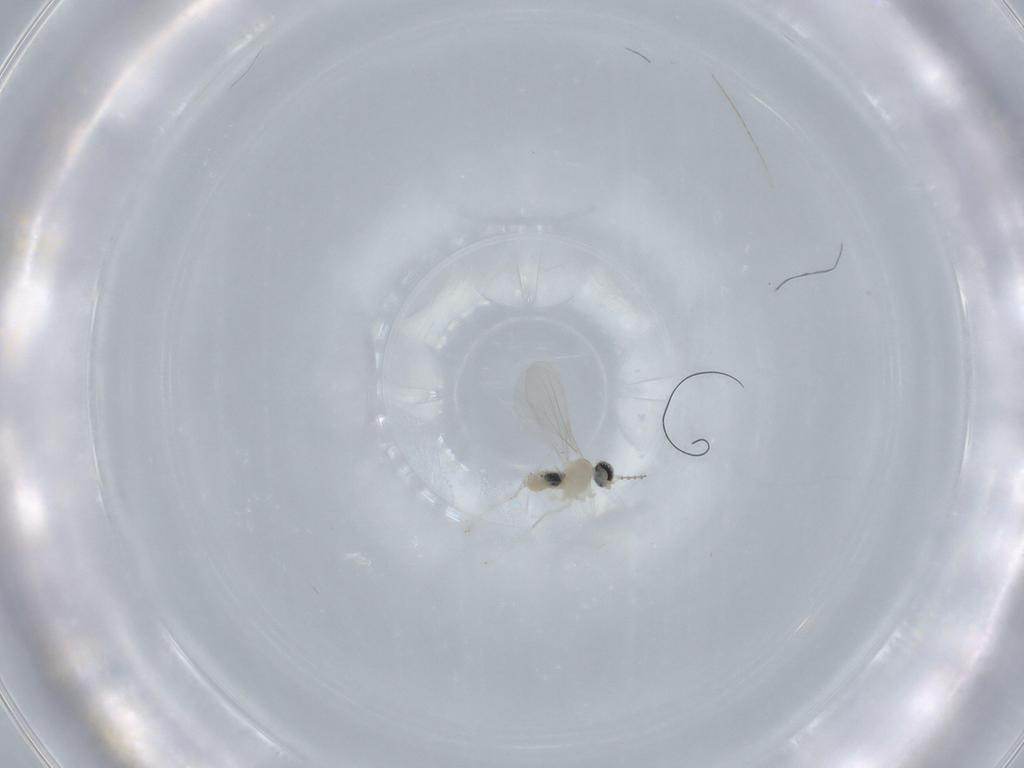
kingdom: Animalia
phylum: Arthropoda
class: Insecta
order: Diptera
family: Cecidomyiidae
